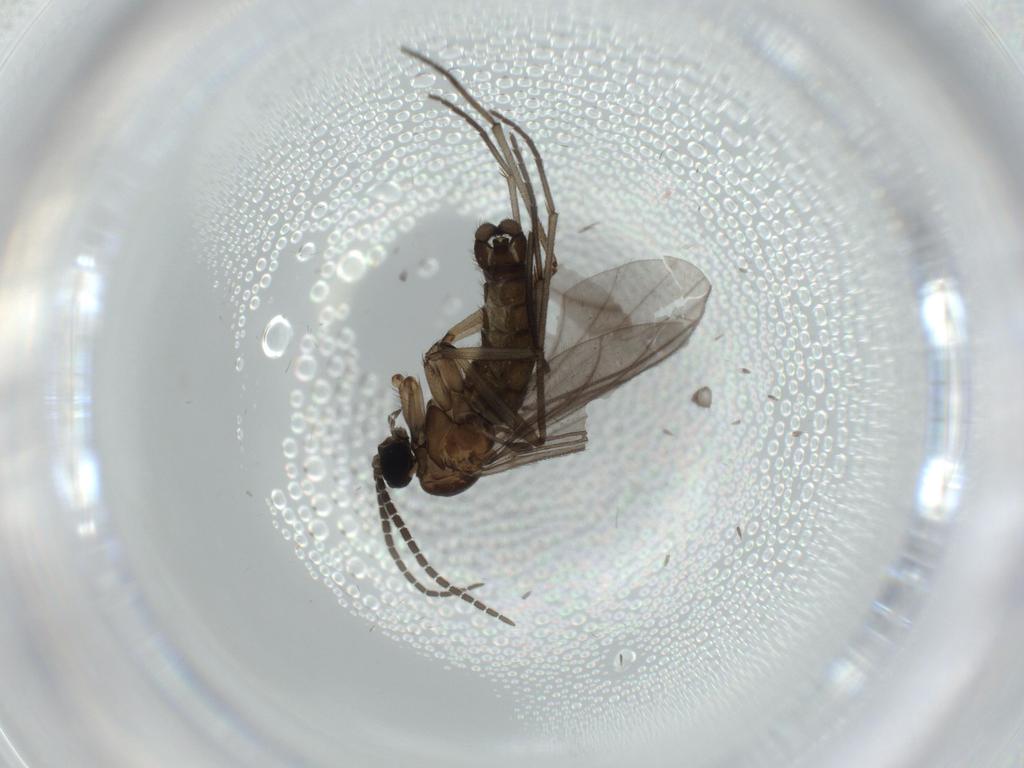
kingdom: Animalia
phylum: Arthropoda
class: Insecta
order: Diptera
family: Sciaridae
